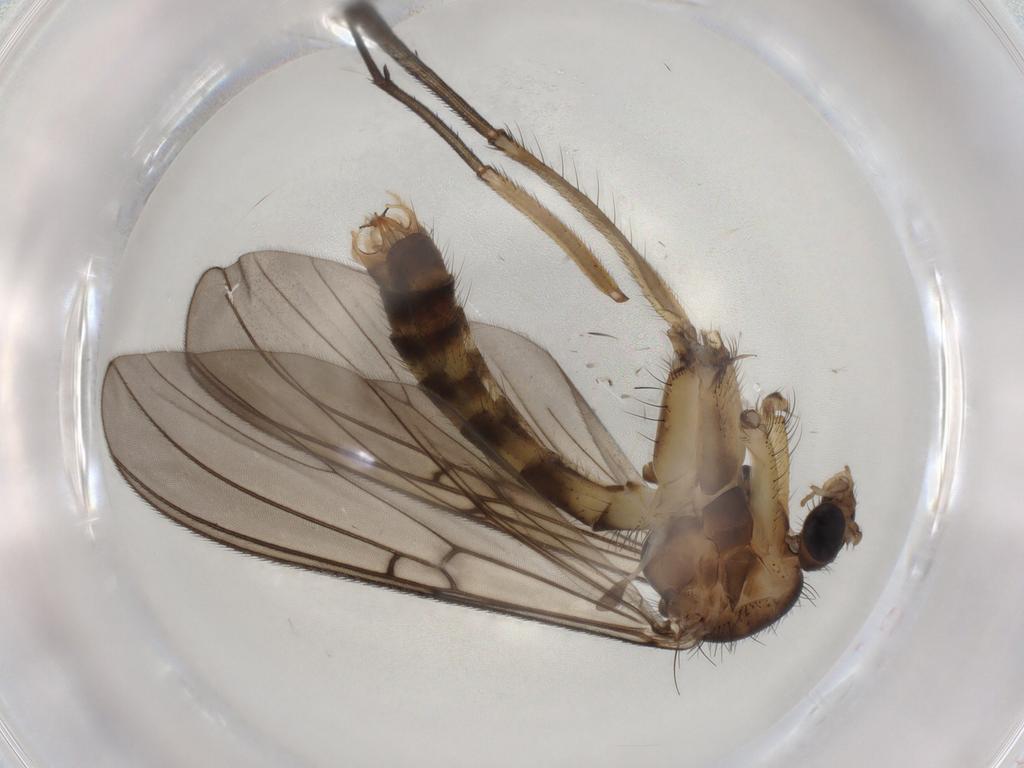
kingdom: Animalia
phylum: Arthropoda
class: Insecta
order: Diptera
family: Mycetophilidae
